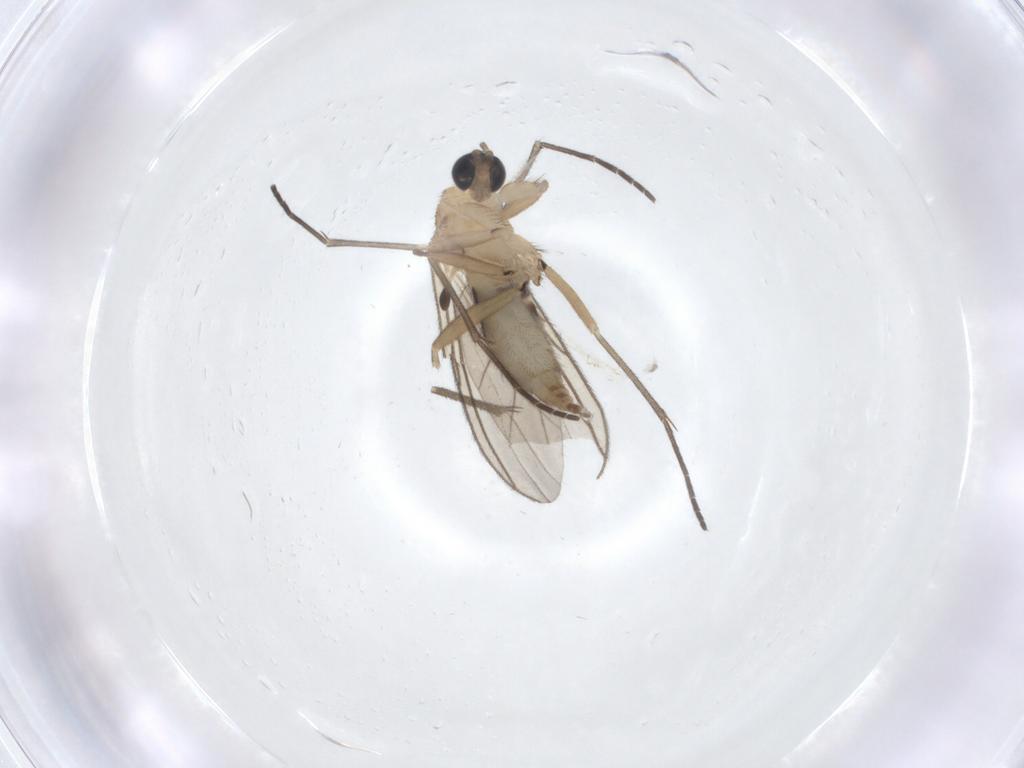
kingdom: Animalia
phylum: Arthropoda
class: Insecta
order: Diptera
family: Sciaridae
